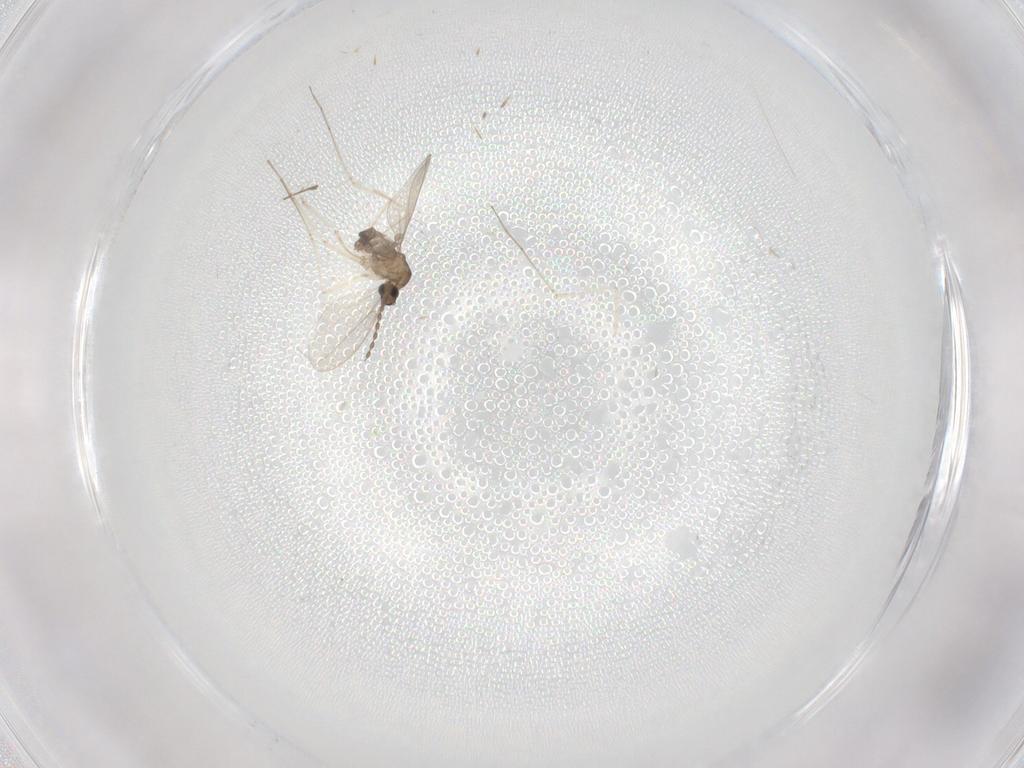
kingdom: Animalia
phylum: Arthropoda
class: Insecta
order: Diptera
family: Cecidomyiidae
